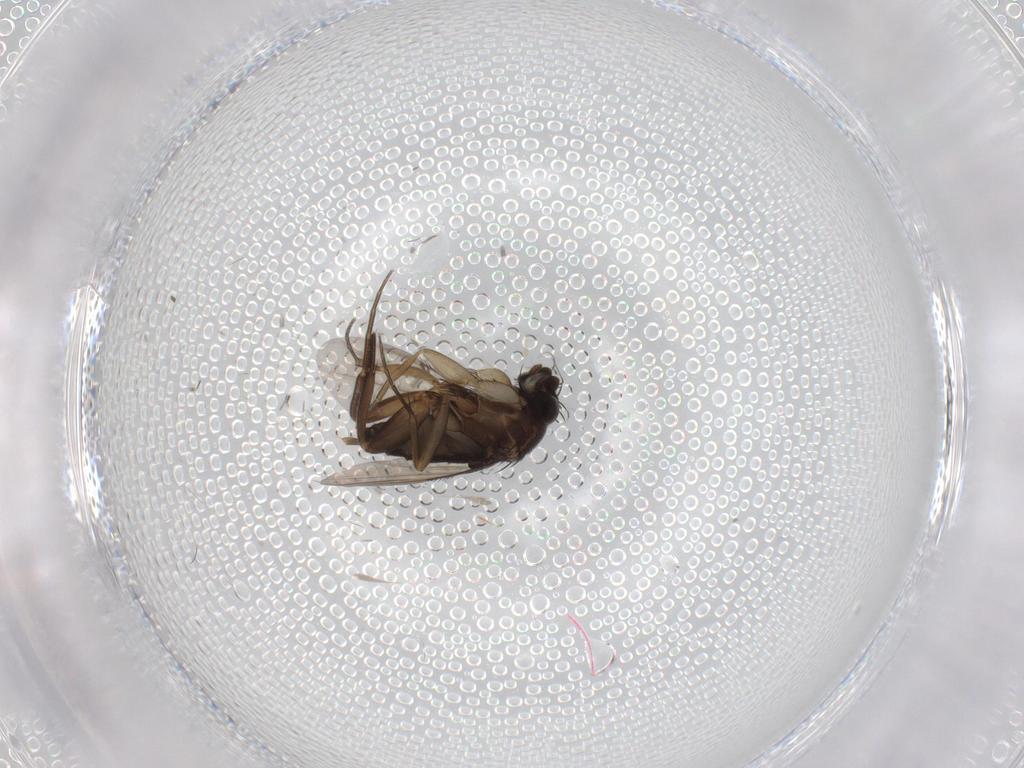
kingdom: Animalia
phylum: Arthropoda
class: Insecta
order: Diptera
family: Phoridae
